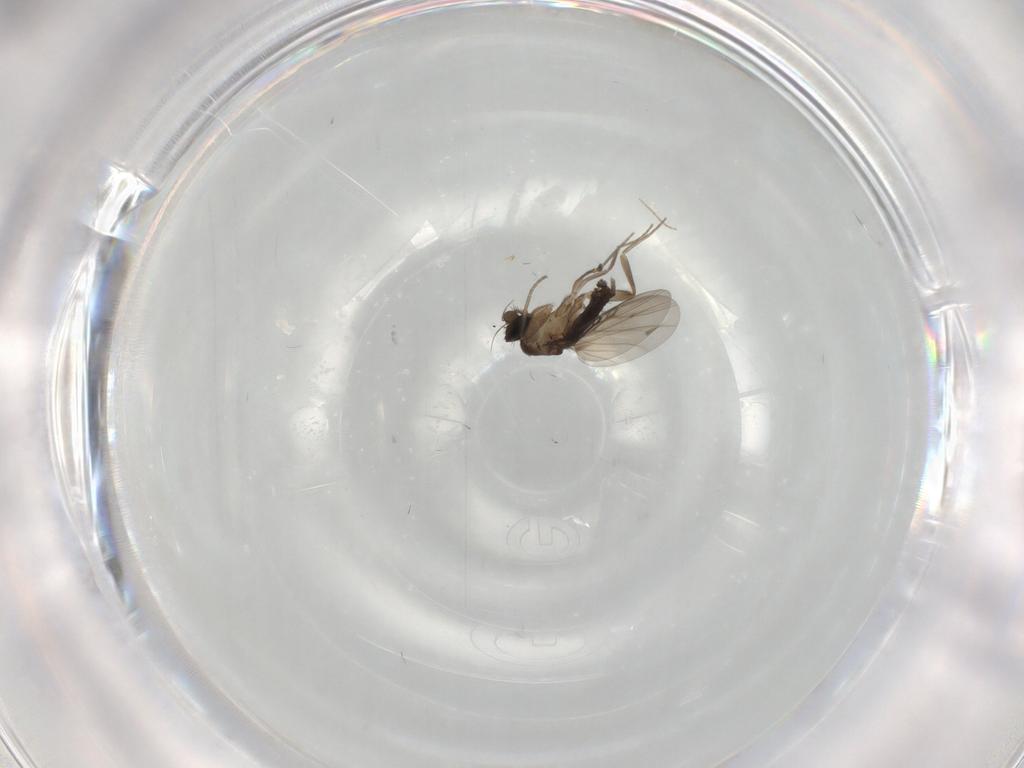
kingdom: Animalia
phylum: Arthropoda
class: Insecta
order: Diptera
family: Chironomidae
